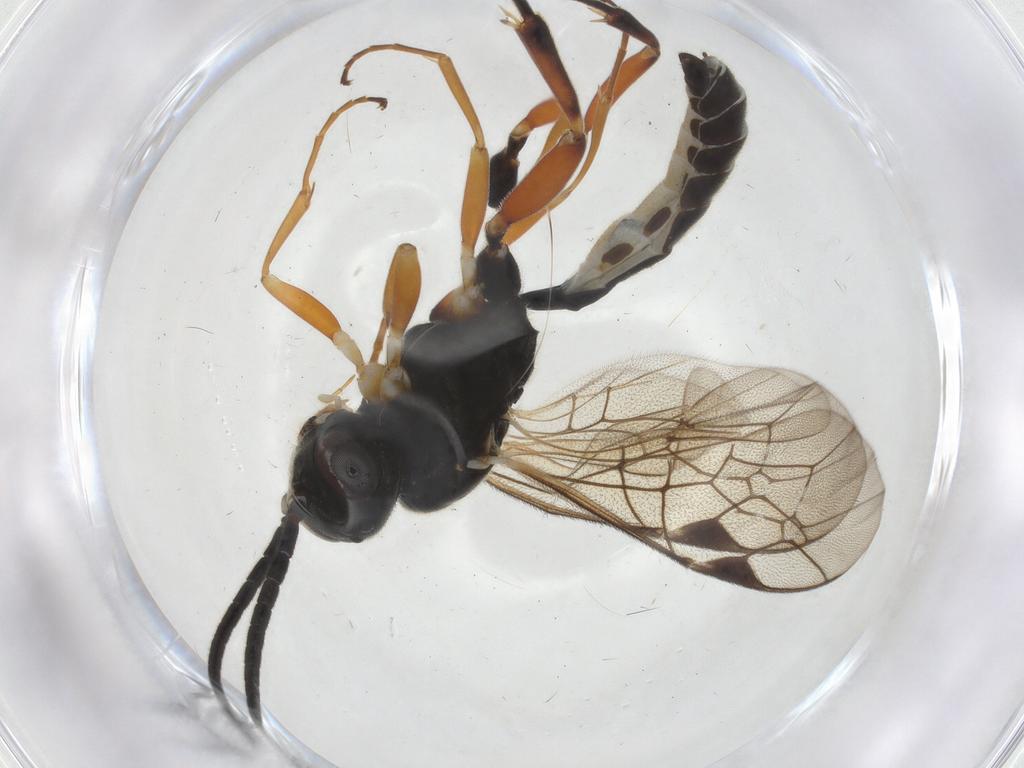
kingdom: Animalia
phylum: Arthropoda
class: Insecta
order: Hymenoptera
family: Ichneumonidae
